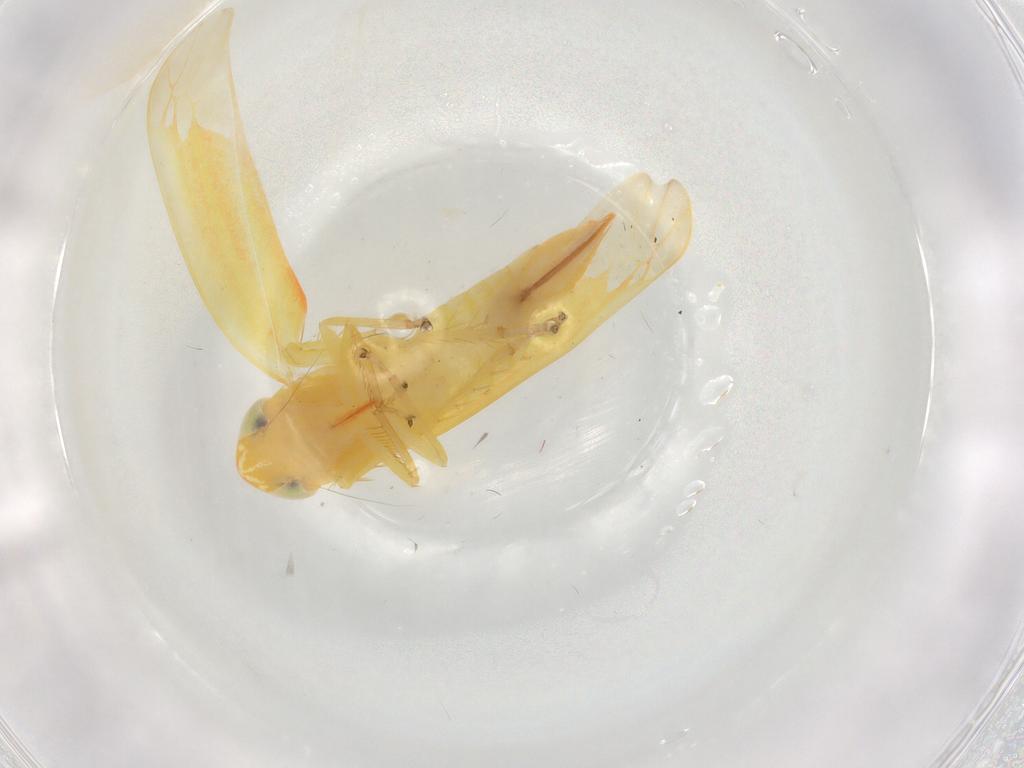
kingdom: Animalia
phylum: Arthropoda
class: Insecta
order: Hemiptera
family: Cicadellidae
